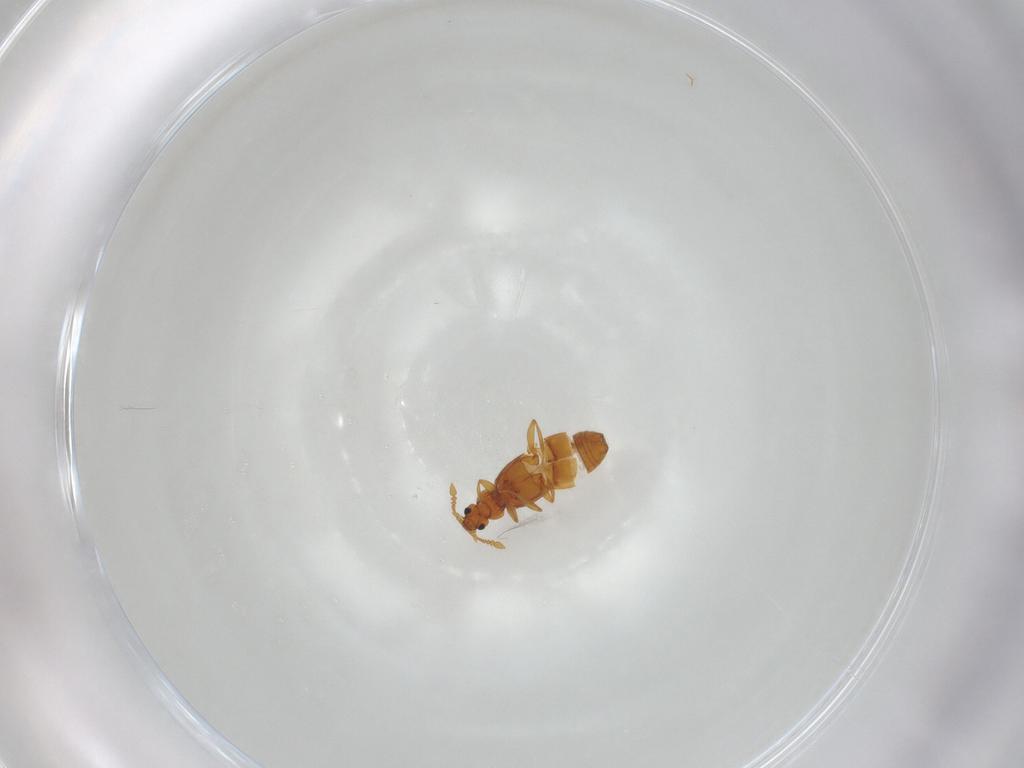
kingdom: Animalia
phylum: Arthropoda
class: Insecta
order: Coleoptera
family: Staphylinidae
